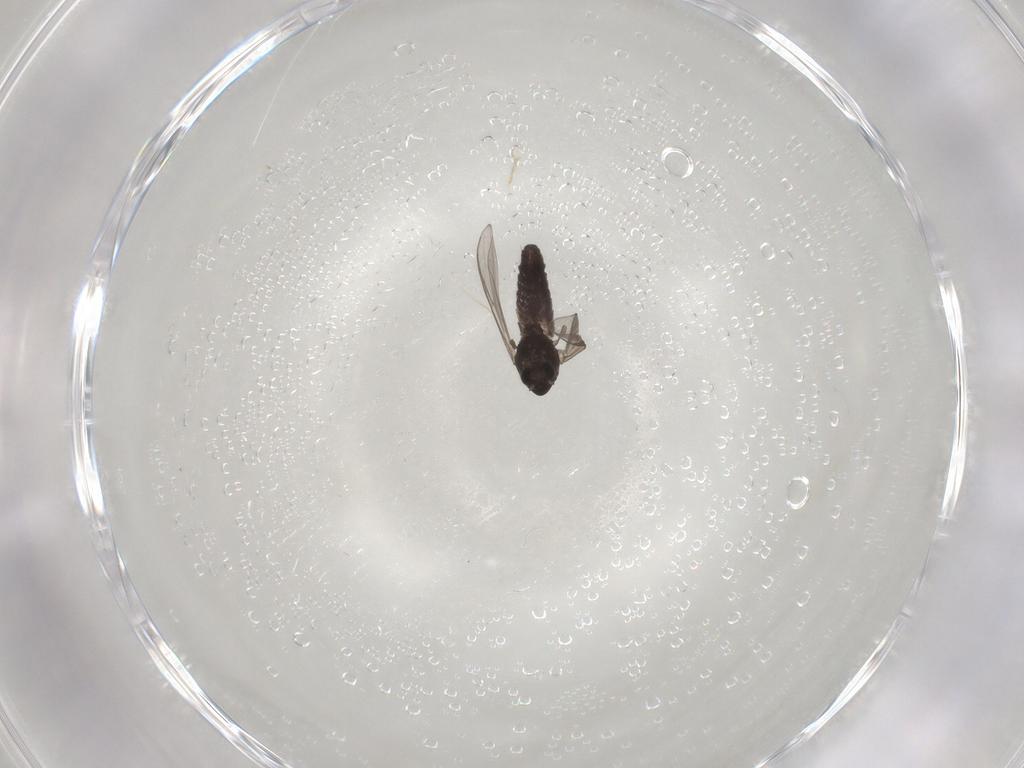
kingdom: Animalia
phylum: Arthropoda
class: Insecta
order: Diptera
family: Chironomidae
